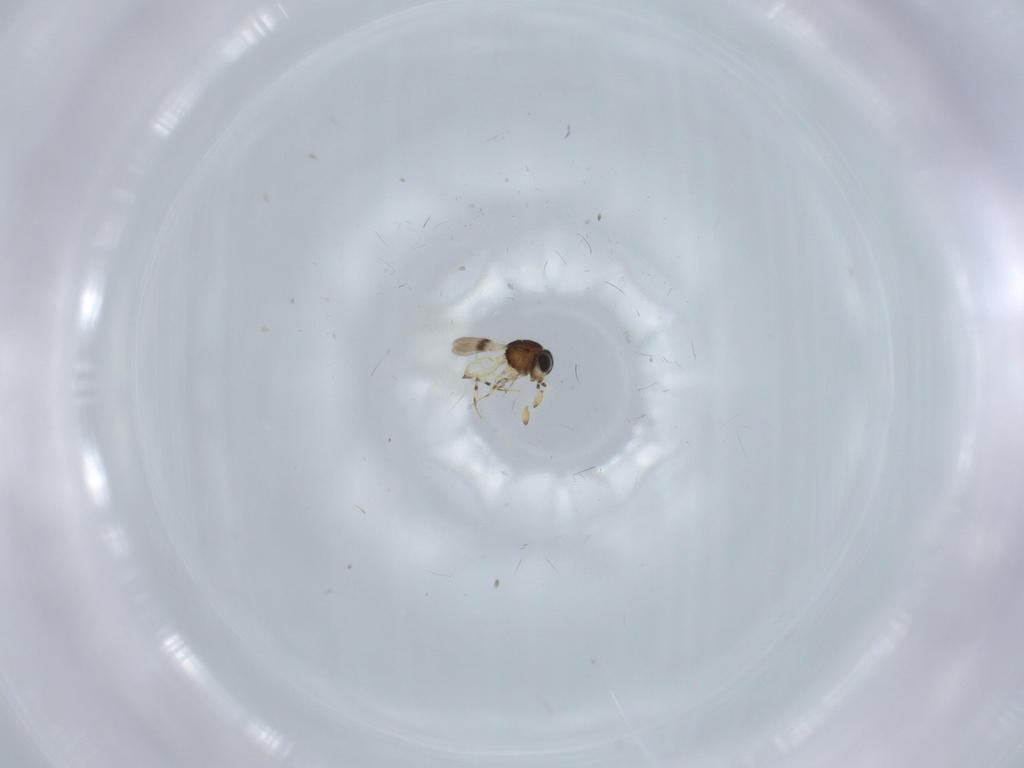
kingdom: Animalia
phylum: Arthropoda
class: Insecta
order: Hymenoptera
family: Scelionidae
